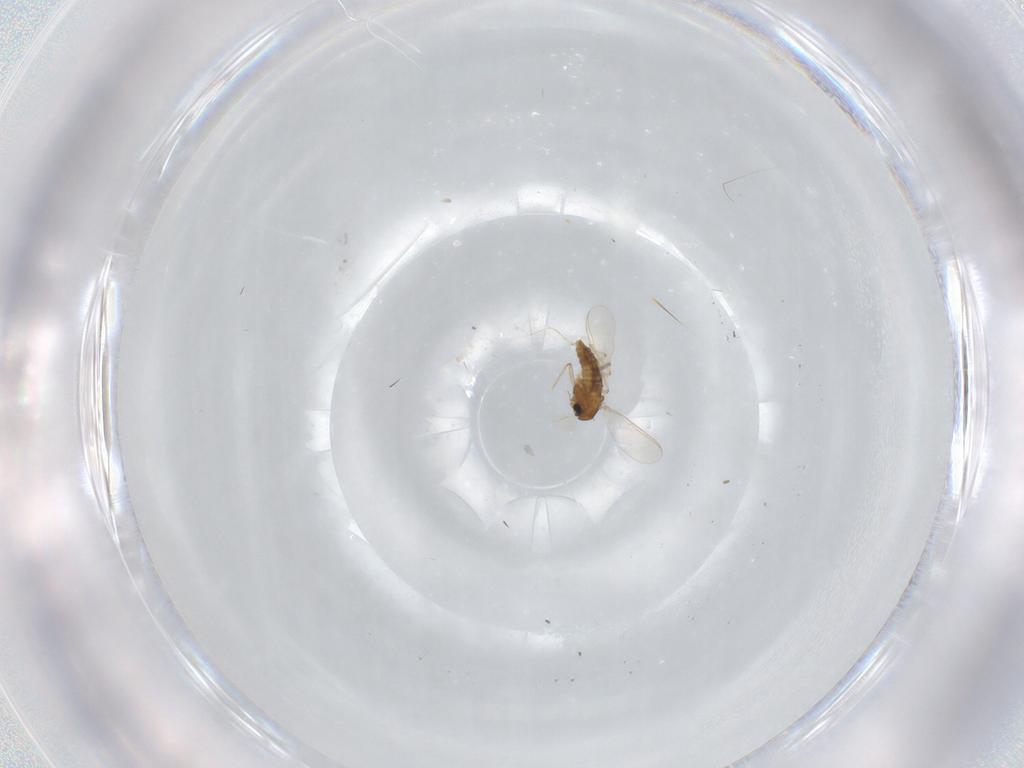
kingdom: Animalia
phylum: Arthropoda
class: Insecta
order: Diptera
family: Sciaridae
